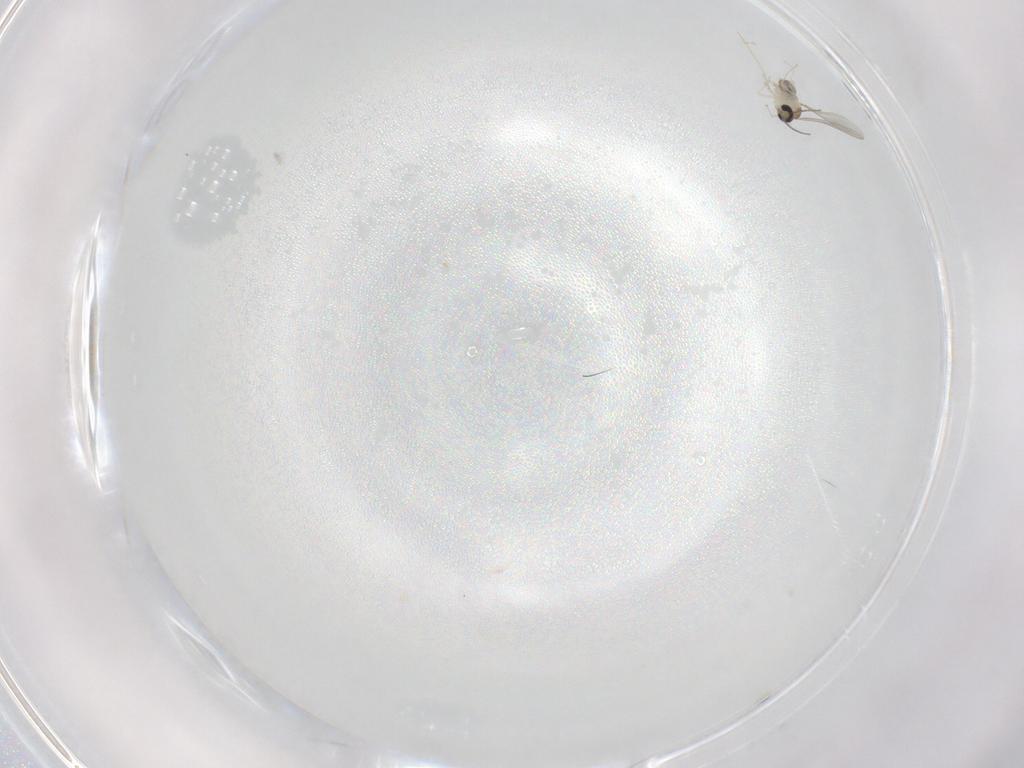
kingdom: Animalia
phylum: Arthropoda
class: Insecta
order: Diptera
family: Cecidomyiidae
